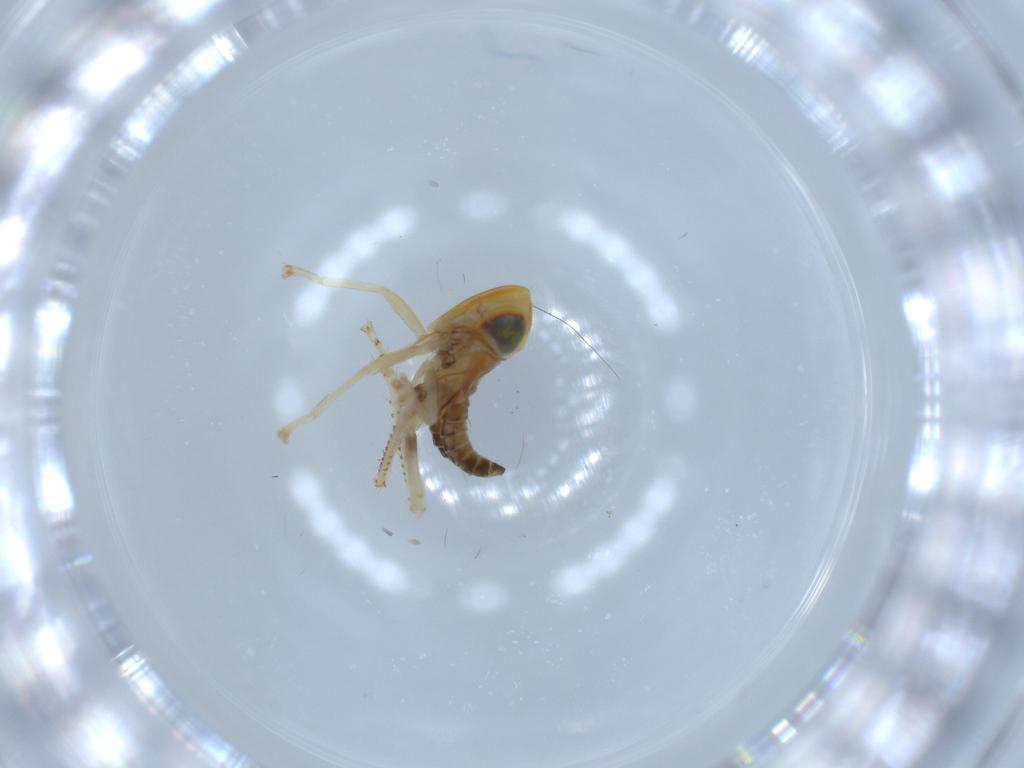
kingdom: Animalia
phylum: Arthropoda
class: Insecta
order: Hemiptera
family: Cicadellidae
